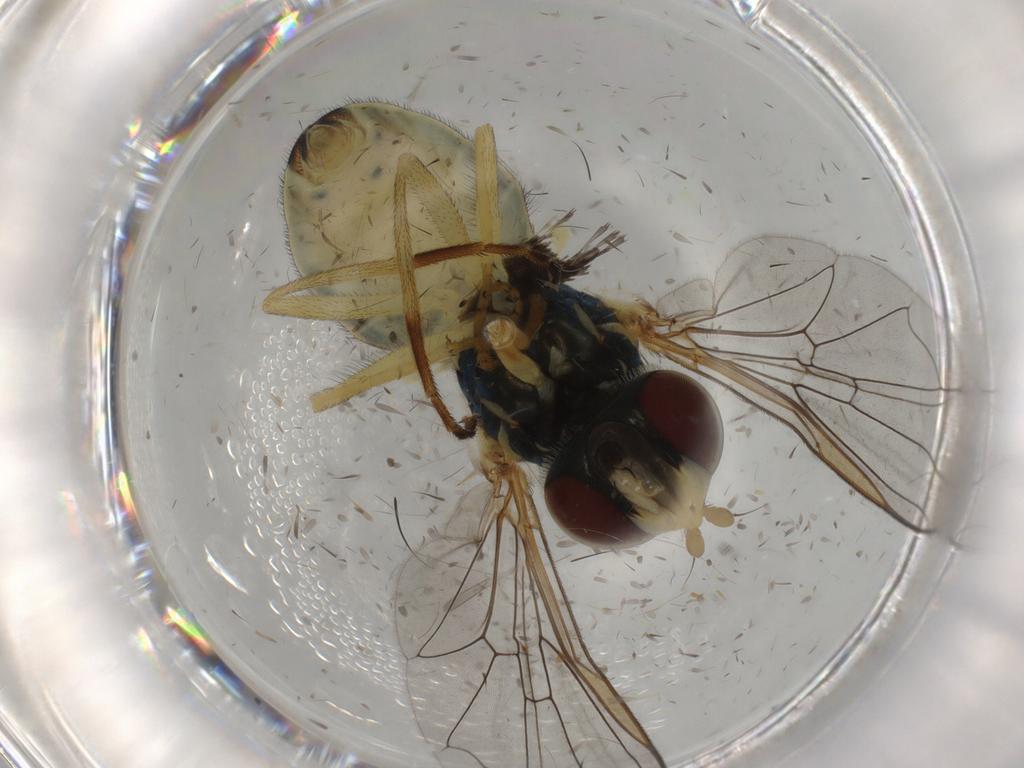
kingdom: Animalia
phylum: Arthropoda
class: Insecta
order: Diptera
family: Syrphidae
